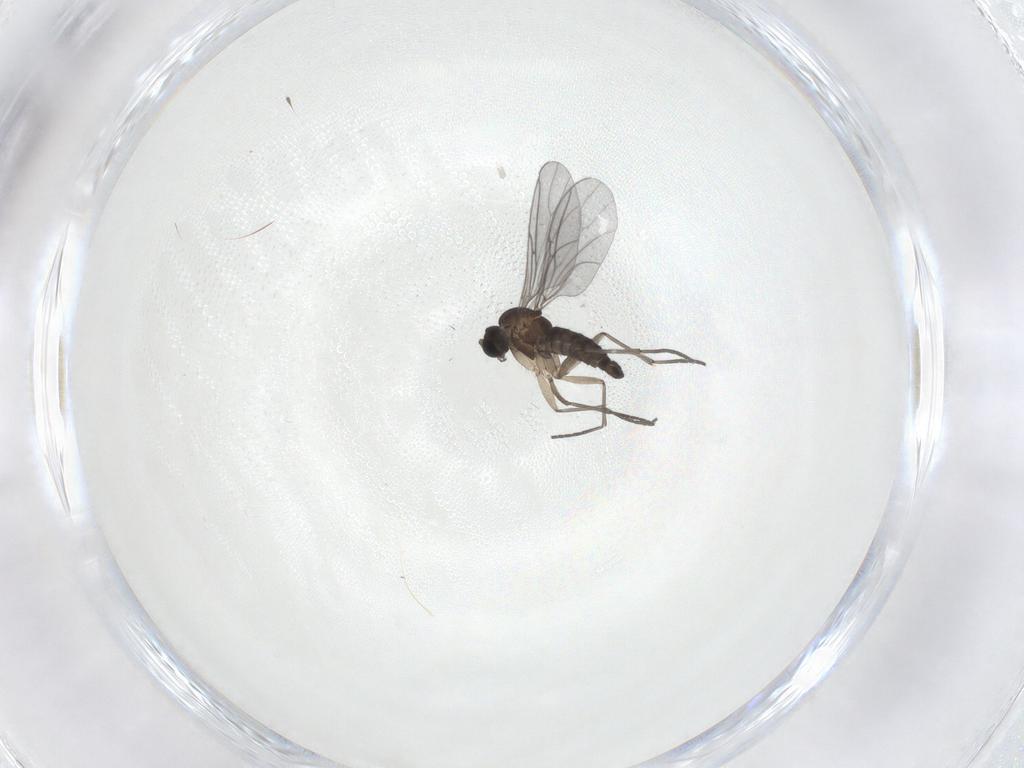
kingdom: Animalia
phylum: Arthropoda
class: Insecta
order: Diptera
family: Sciaridae
